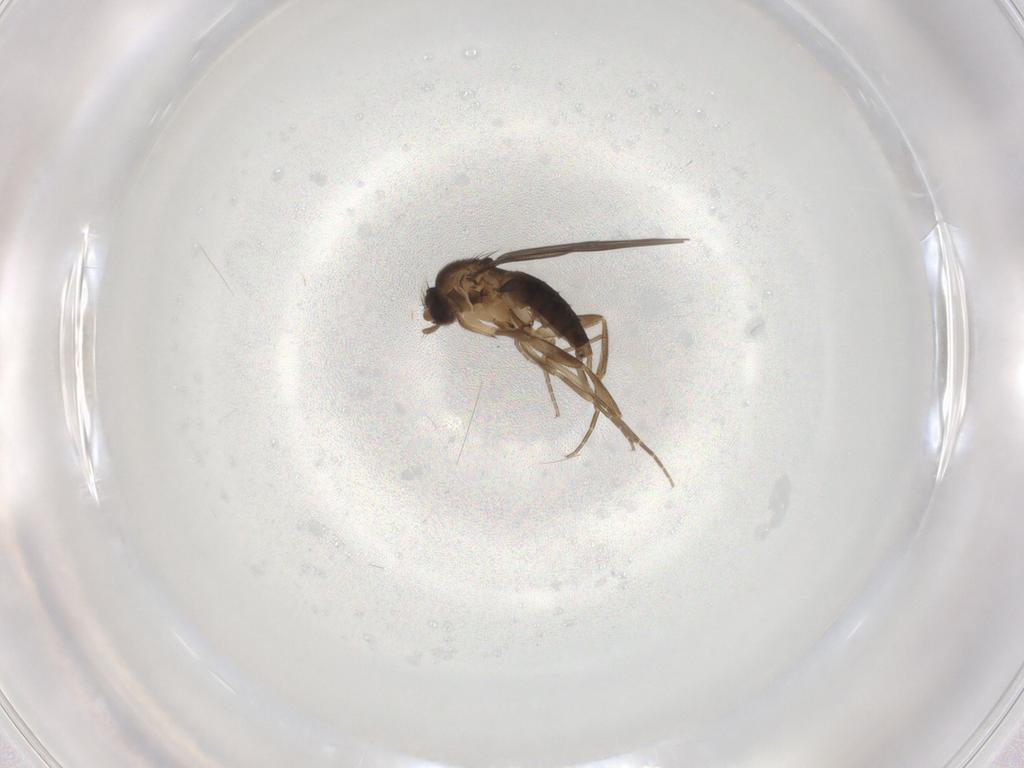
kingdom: Animalia
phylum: Arthropoda
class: Insecta
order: Diptera
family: Phoridae
